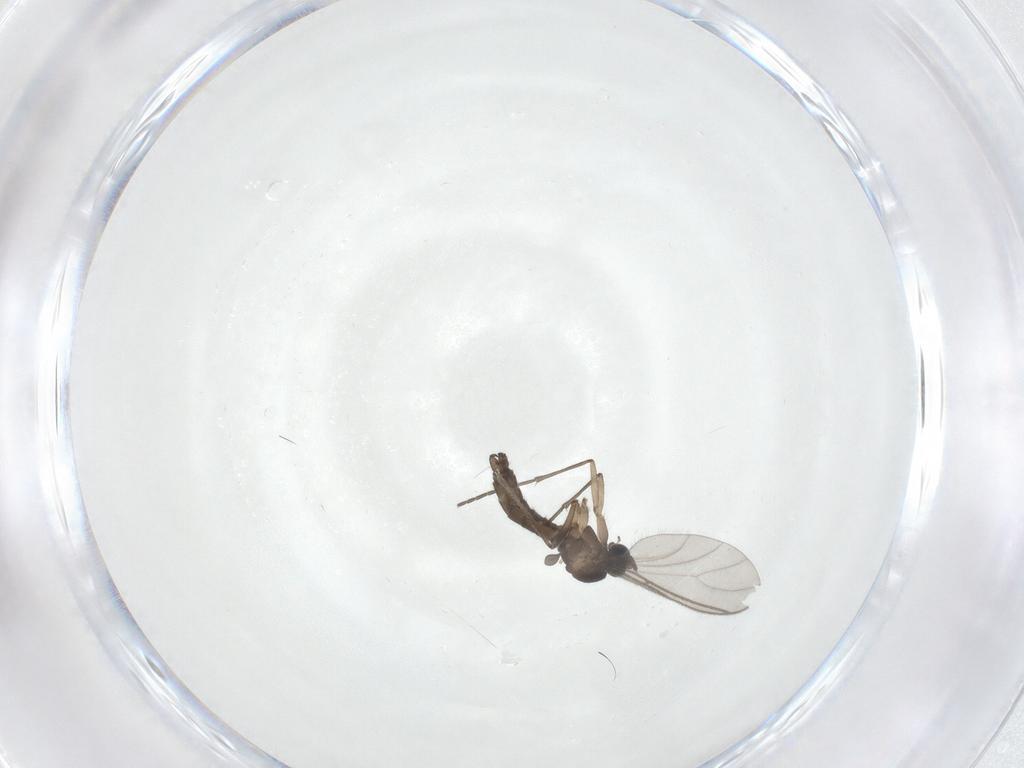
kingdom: Animalia
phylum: Arthropoda
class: Insecta
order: Diptera
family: Sciaridae
